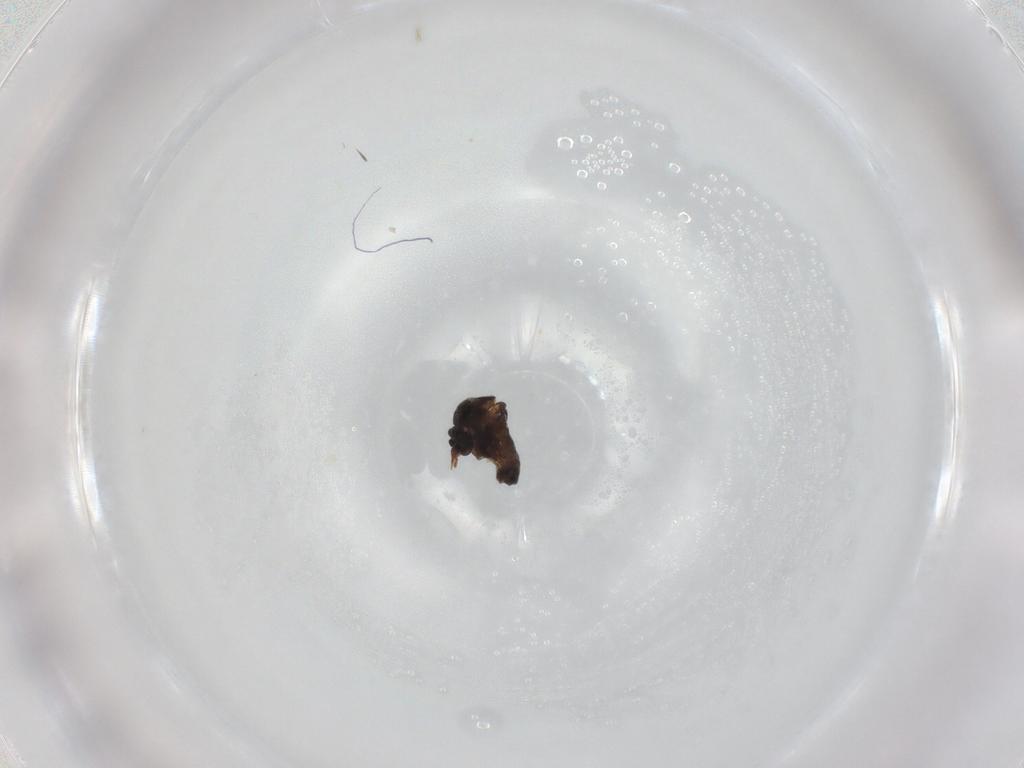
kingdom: Animalia
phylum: Arthropoda
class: Insecta
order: Diptera
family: Ceratopogonidae
